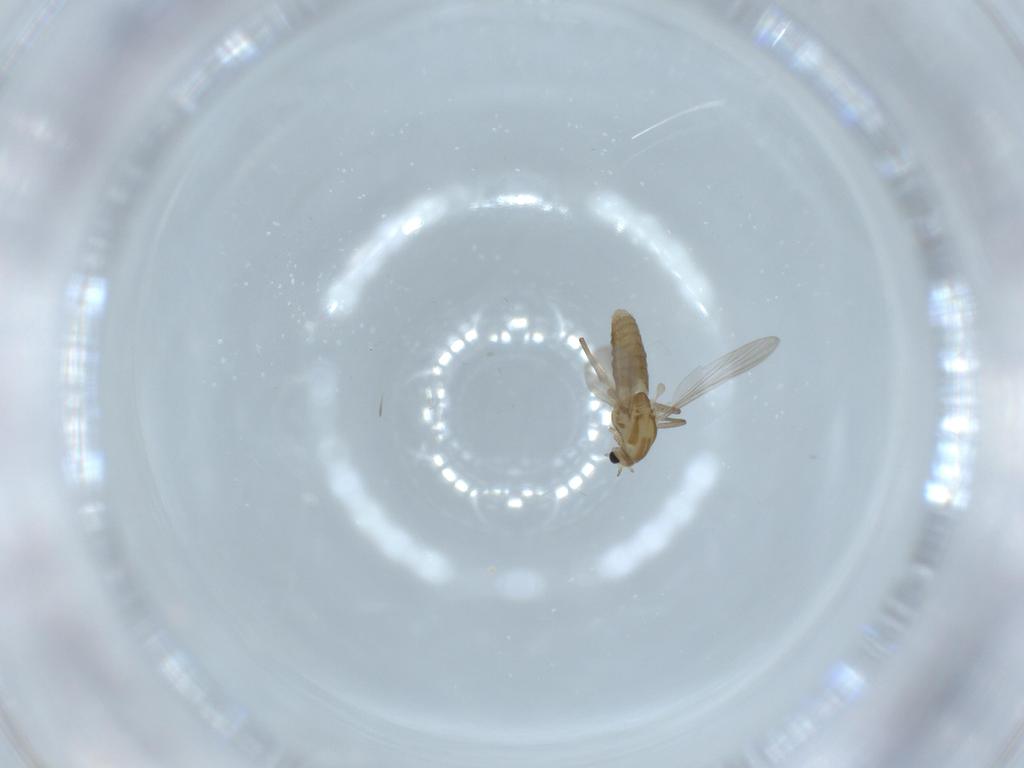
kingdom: Animalia
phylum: Arthropoda
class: Insecta
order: Diptera
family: Chironomidae
